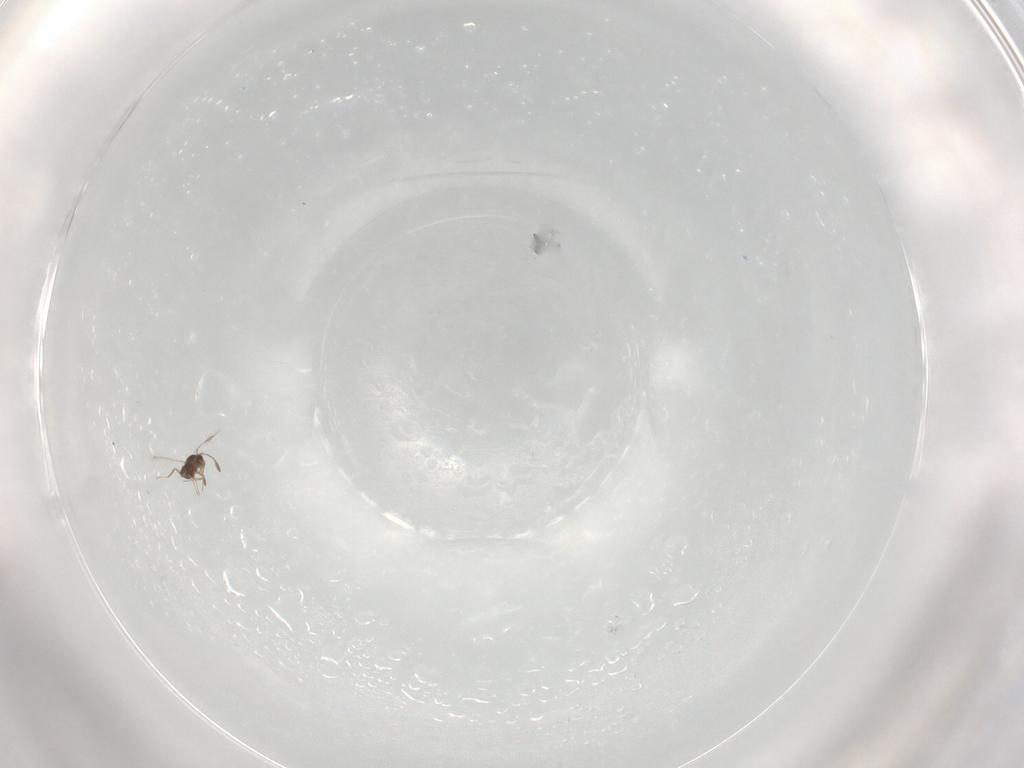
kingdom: Animalia
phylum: Arthropoda
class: Insecta
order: Hymenoptera
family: Mymaridae
